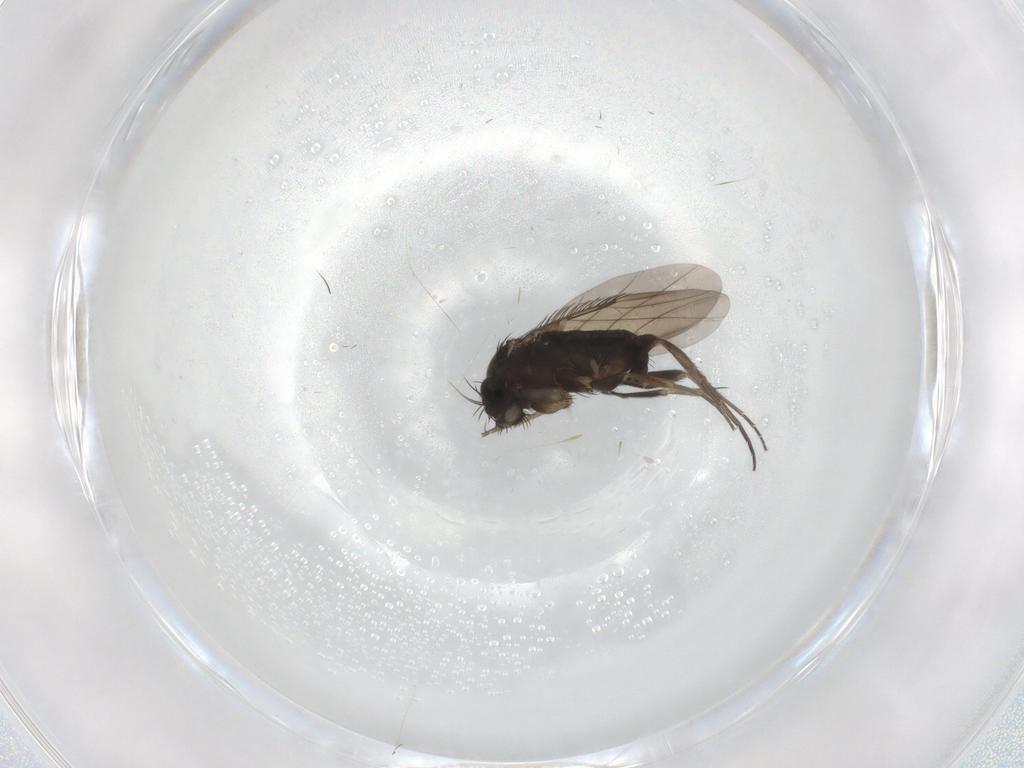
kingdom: Animalia
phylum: Arthropoda
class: Insecta
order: Diptera
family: Phoridae
